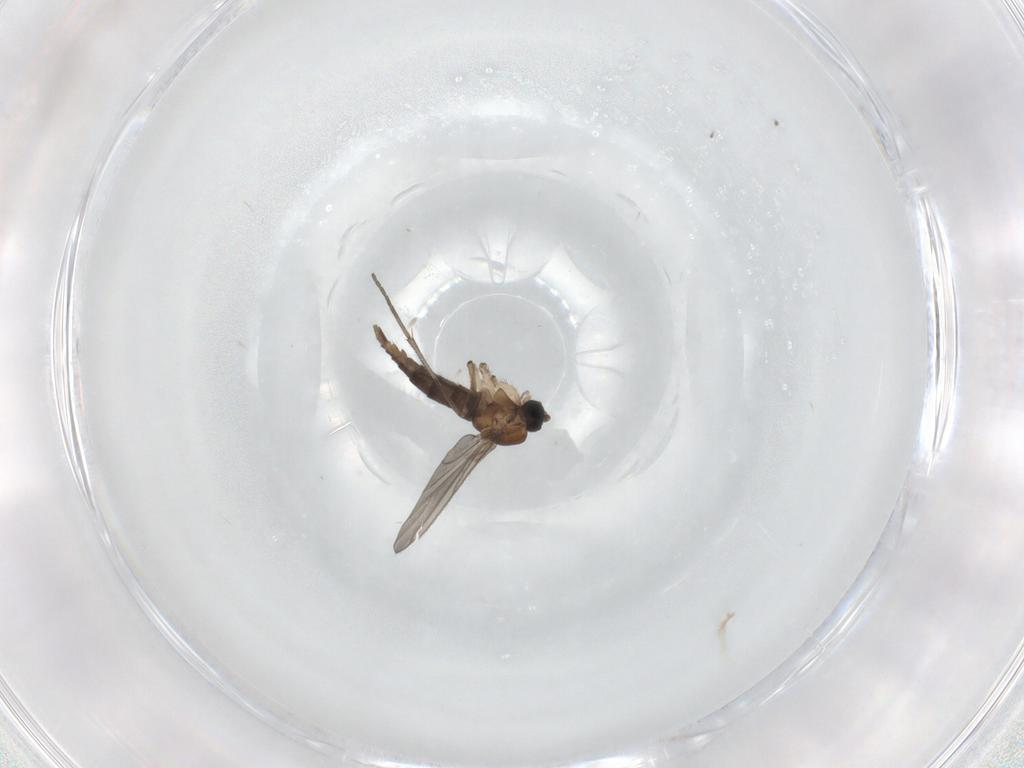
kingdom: Animalia
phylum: Arthropoda
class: Insecta
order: Diptera
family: Sciaridae
